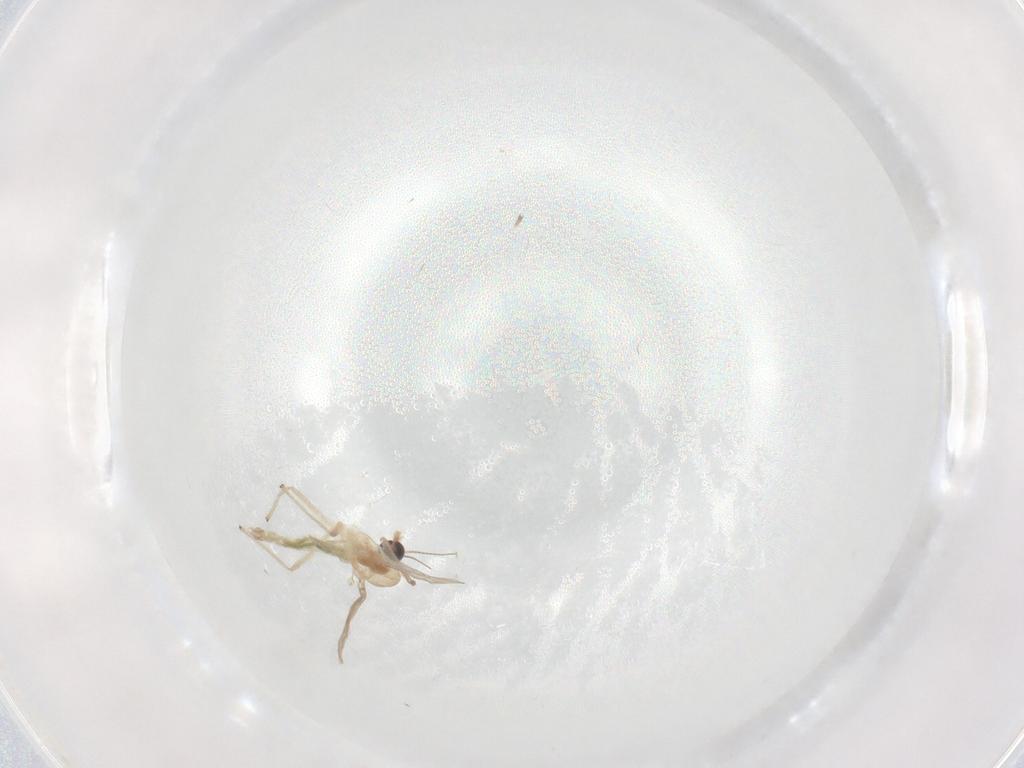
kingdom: Animalia
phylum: Arthropoda
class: Insecta
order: Diptera
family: Chironomidae
